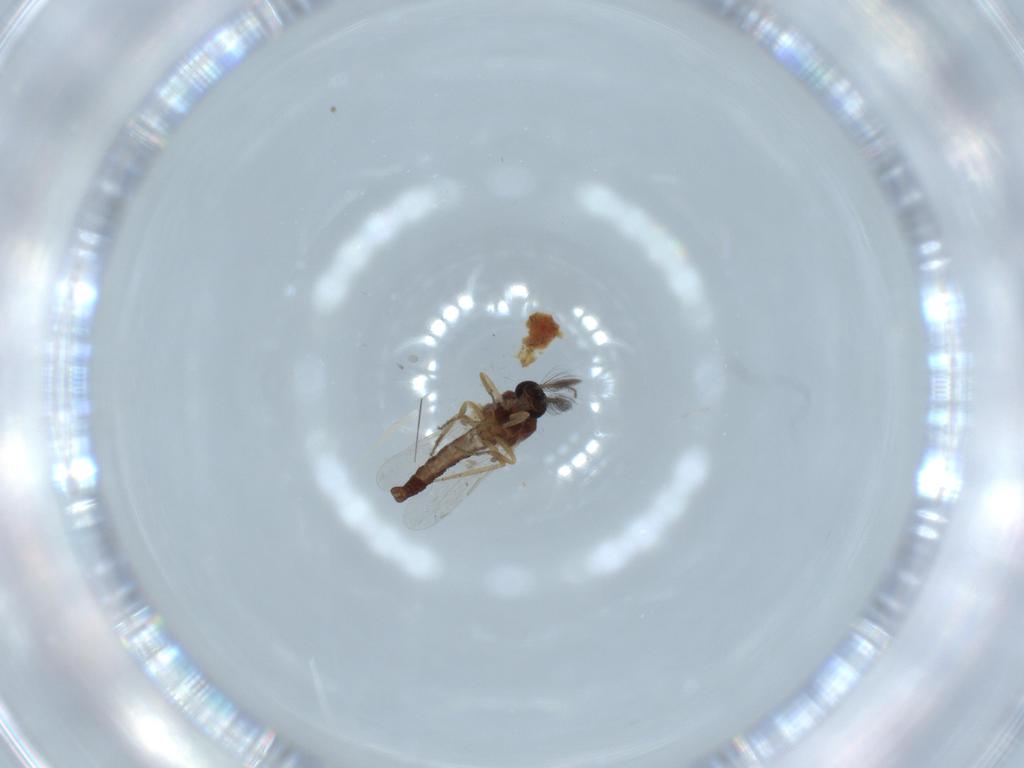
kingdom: Animalia
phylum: Arthropoda
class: Insecta
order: Diptera
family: Ceratopogonidae
